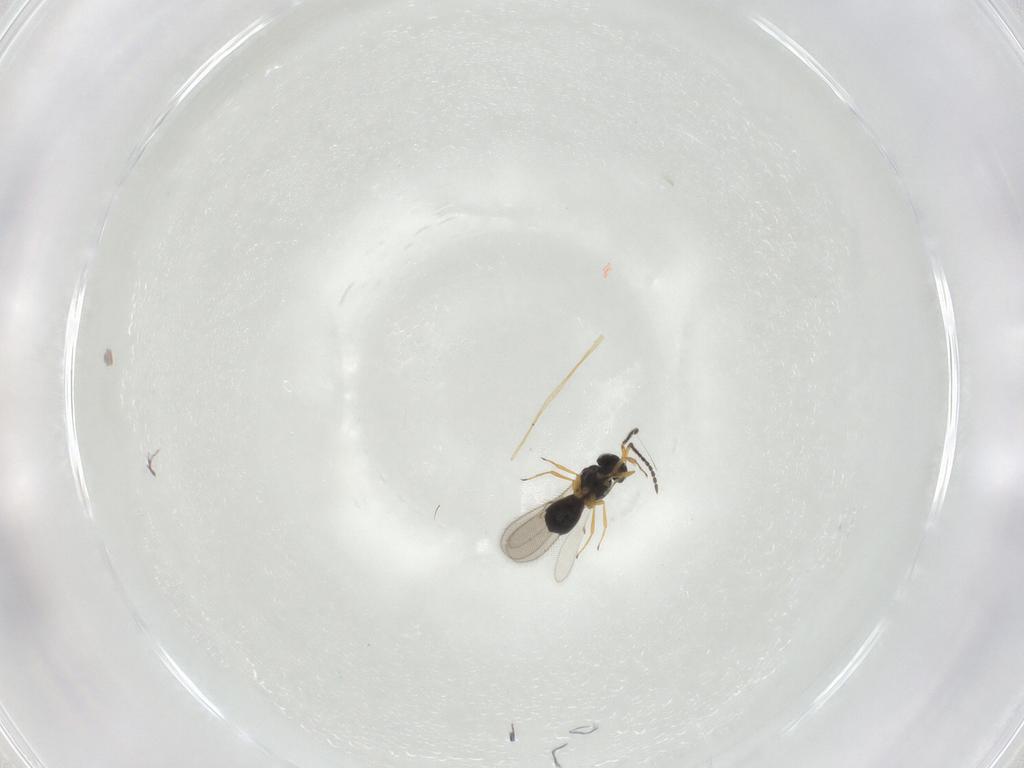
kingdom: Animalia
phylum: Arthropoda
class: Insecta
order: Hymenoptera
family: Scelionidae
